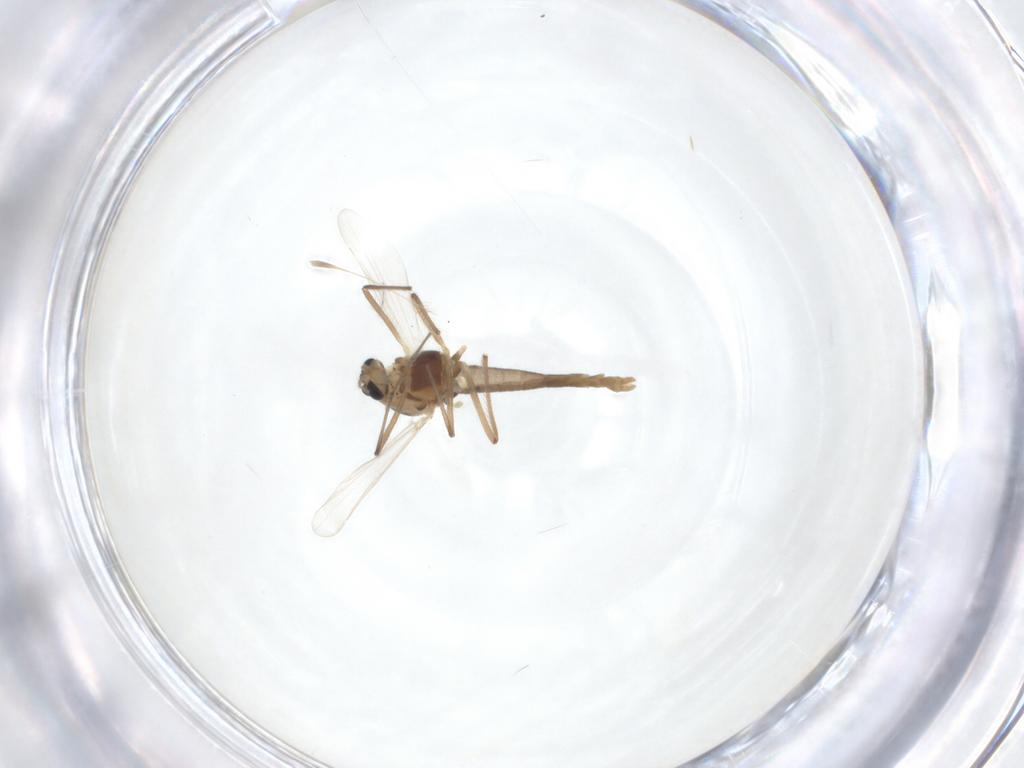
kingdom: Animalia
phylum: Arthropoda
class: Insecta
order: Diptera
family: Chironomidae
